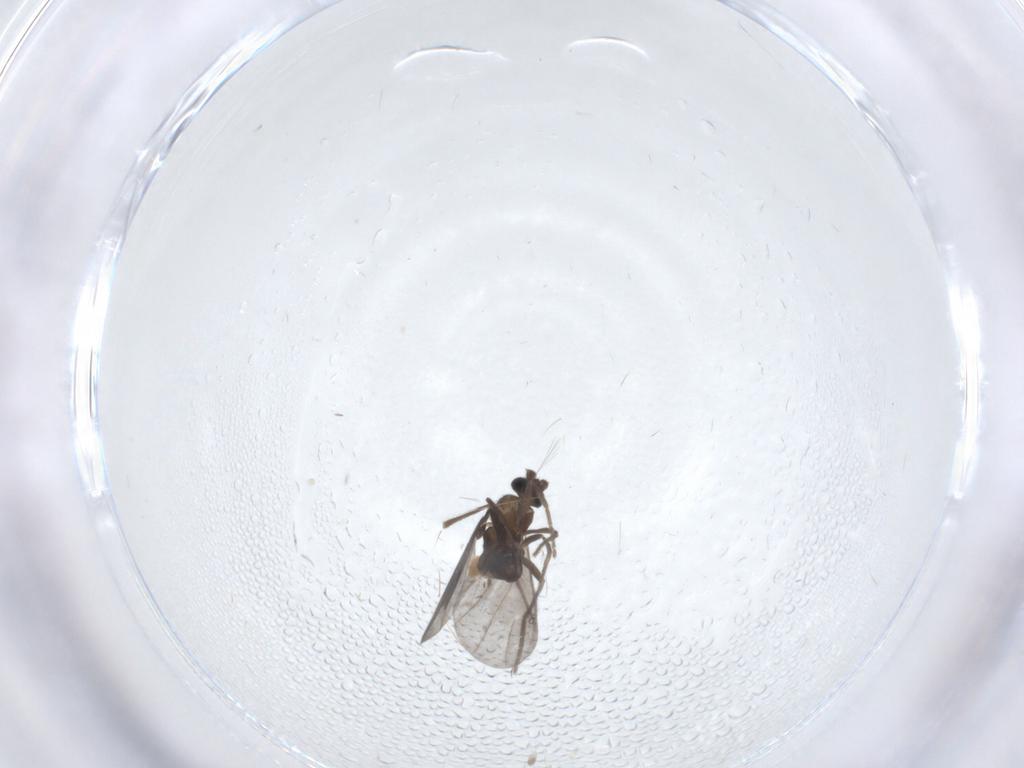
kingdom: Animalia
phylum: Arthropoda
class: Insecta
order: Diptera
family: Phoridae
